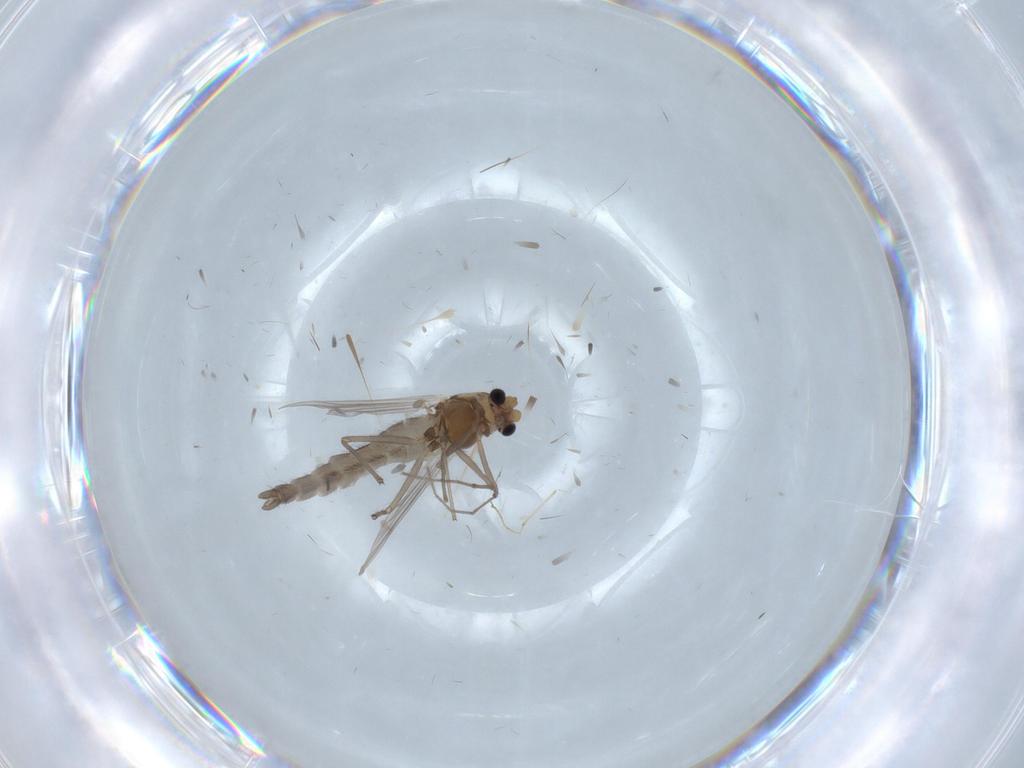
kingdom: Animalia
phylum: Arthropoda
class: Insecta
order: Diptera
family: Chironomidae
